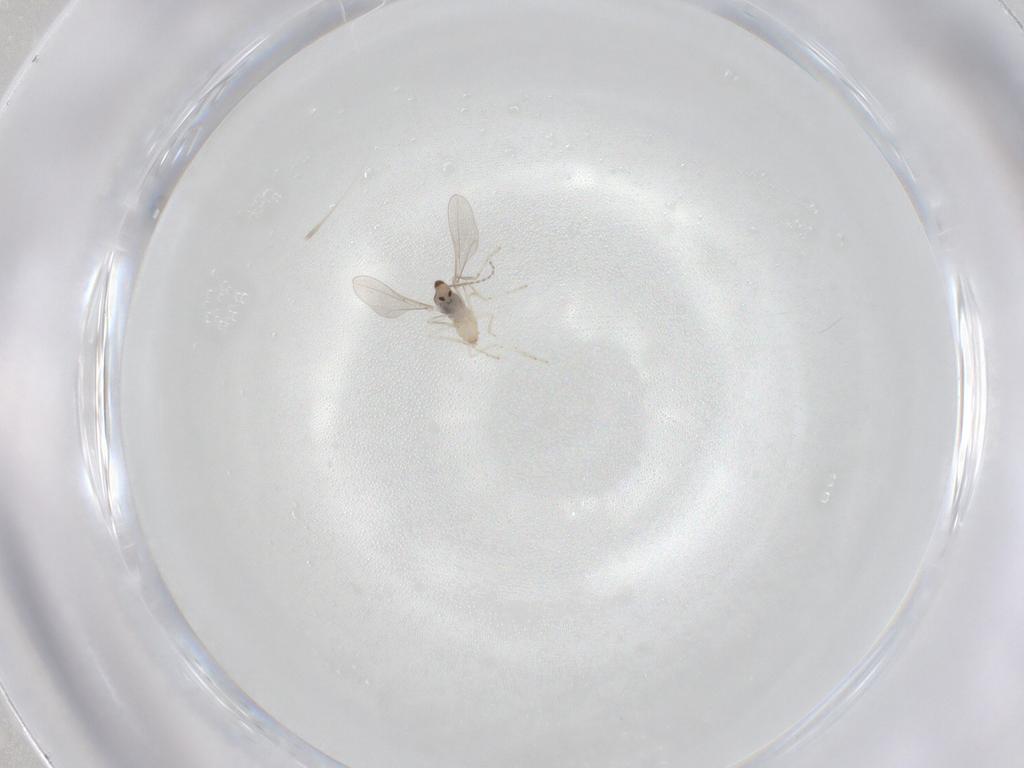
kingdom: Animalia
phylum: Arthropoda
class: Insecta
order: Diptera
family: Cecidomyiidae
